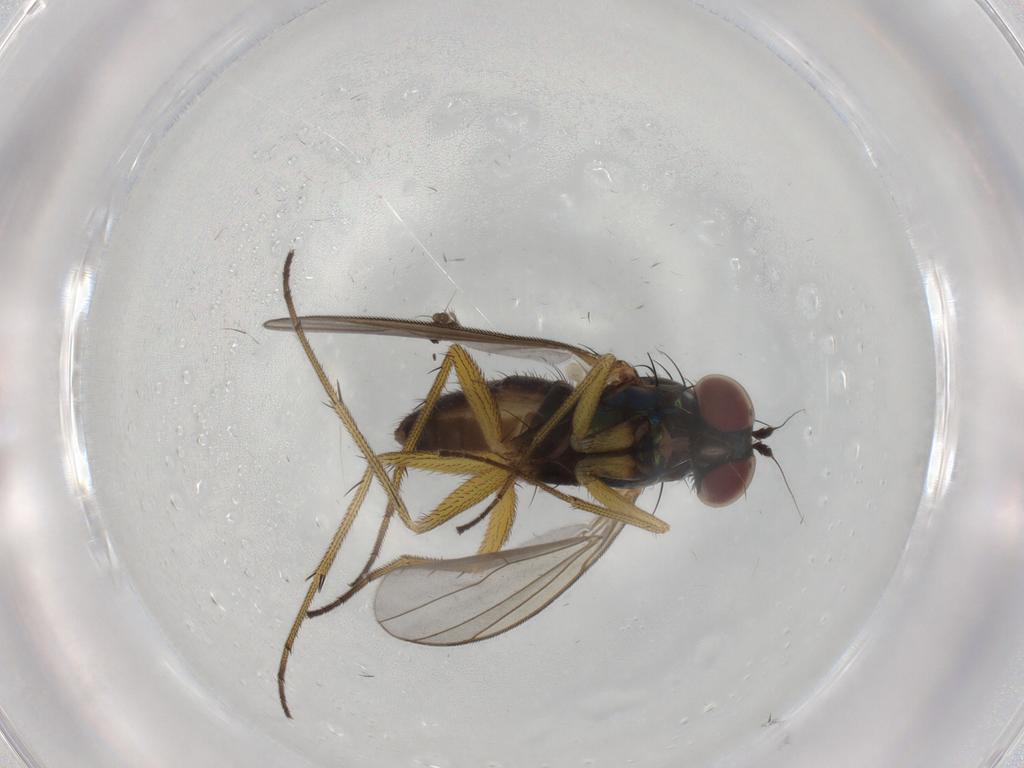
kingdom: Animalia
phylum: Arthropoda
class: Insecta
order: Diptera
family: Dolichopodidae
